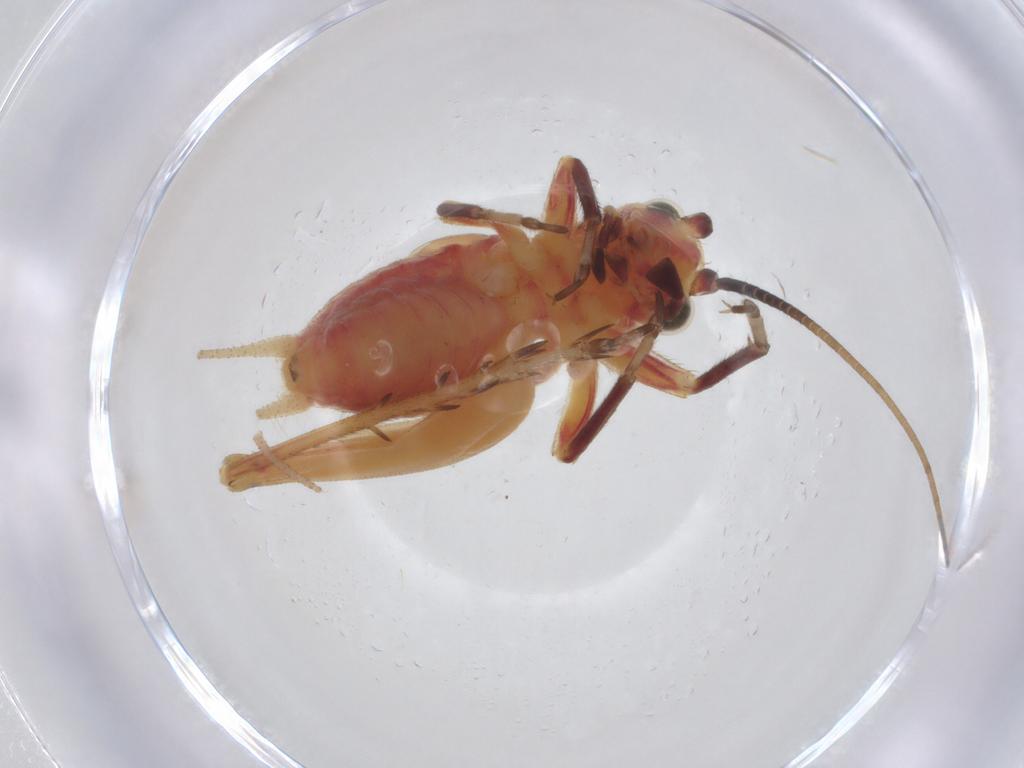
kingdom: Animalia
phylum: Arthropoda
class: Insecta
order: Orthoptera
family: Trigonidiidae
